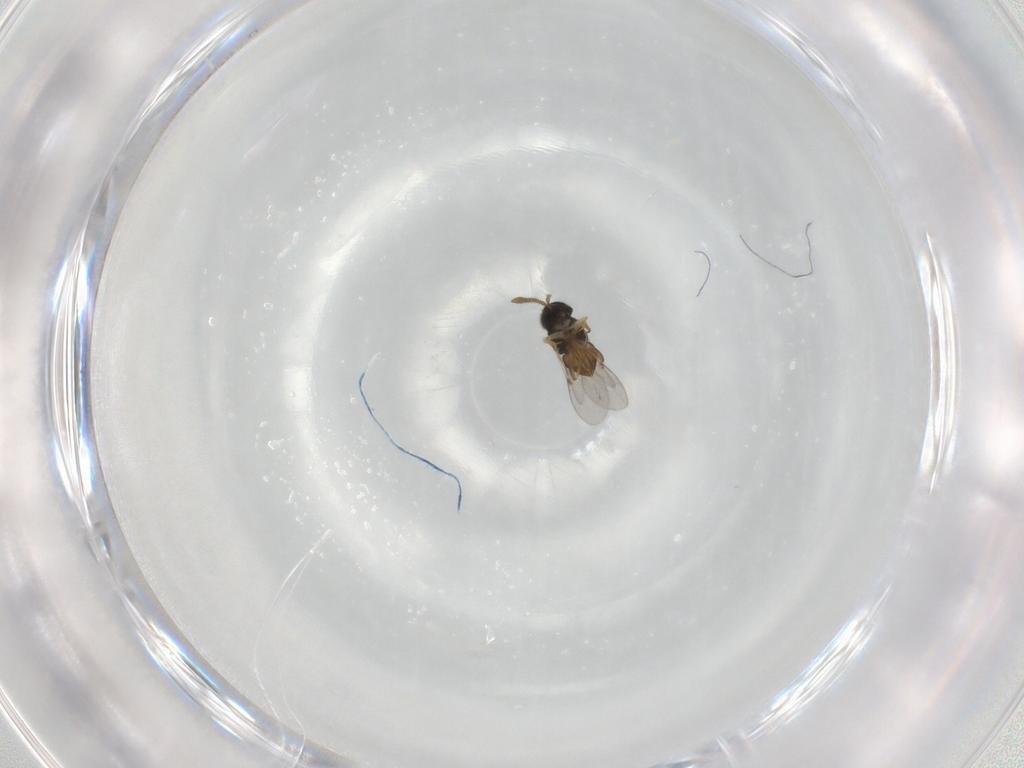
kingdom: Animalia
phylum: Arthropoda
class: Insecta
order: Hymenoptera
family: Encyrtidae
